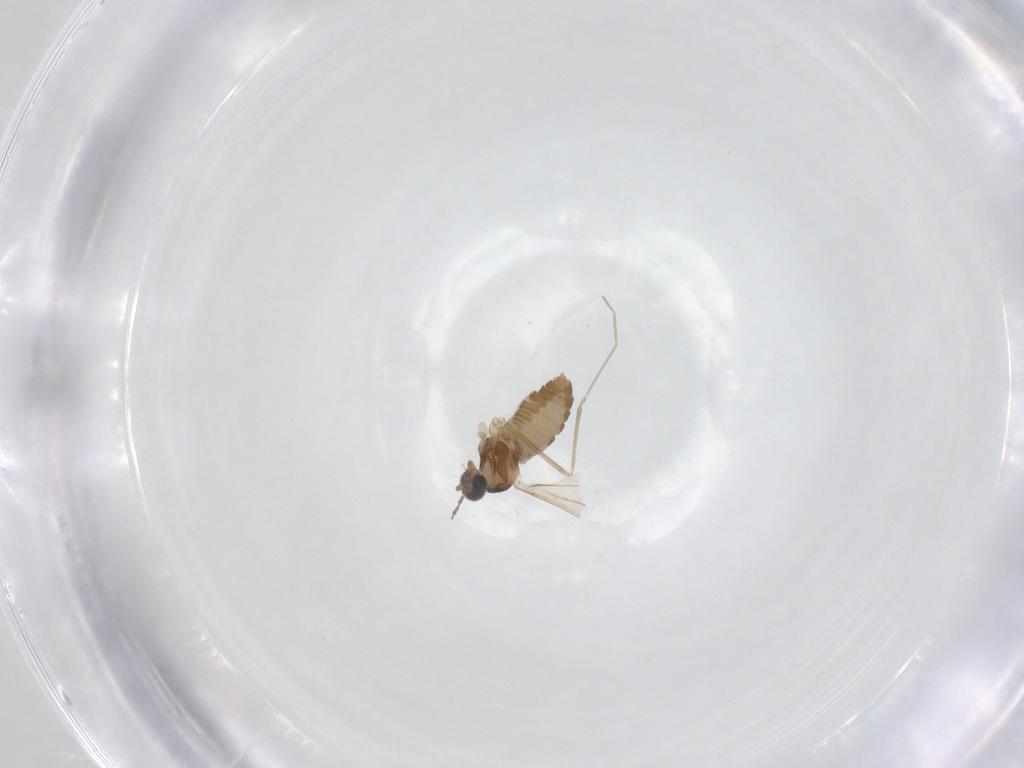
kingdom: Animalia
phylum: Arthropoda
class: Insecta
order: Diptera
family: Cecidomyiidae
